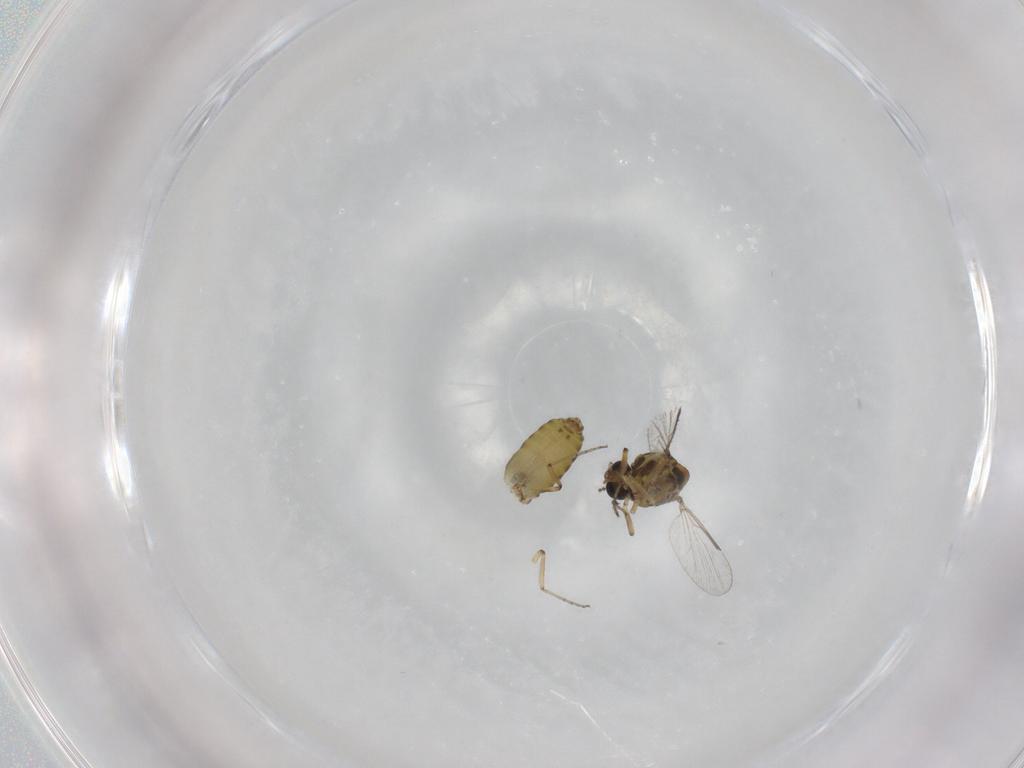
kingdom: Animalia
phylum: Arthropoda
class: Insecta
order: Diptera
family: Ceratopogonidae
